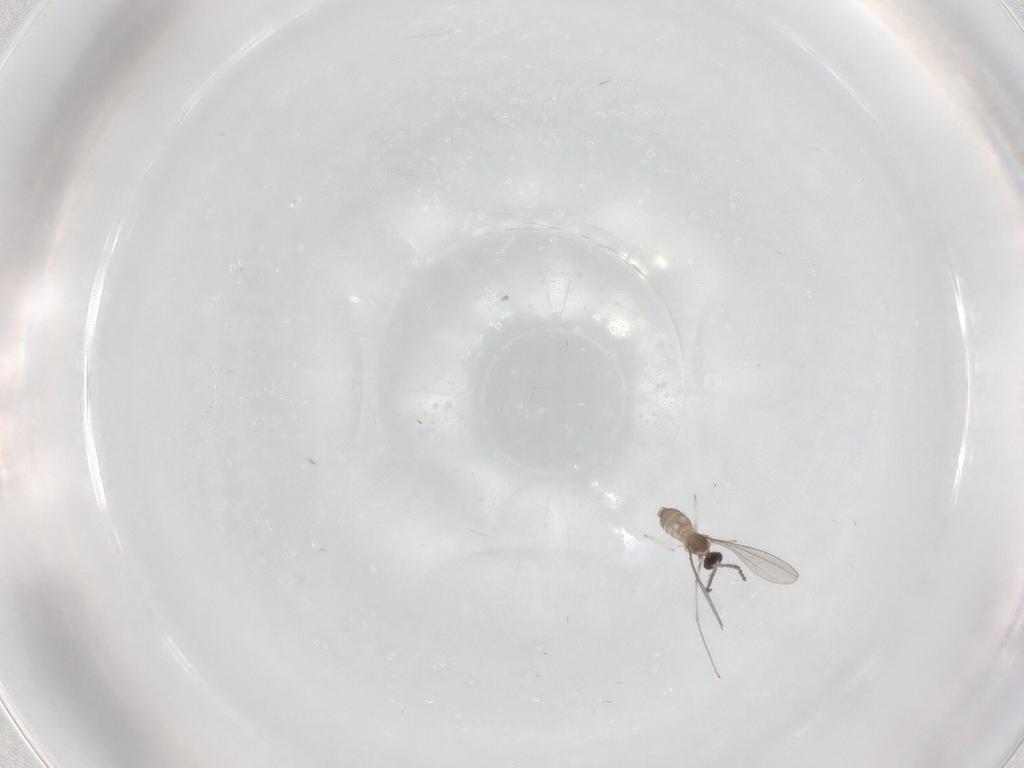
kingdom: Animalia
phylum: Arthropoda
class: Insecta
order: Diptera
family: Cecidomyiidae
